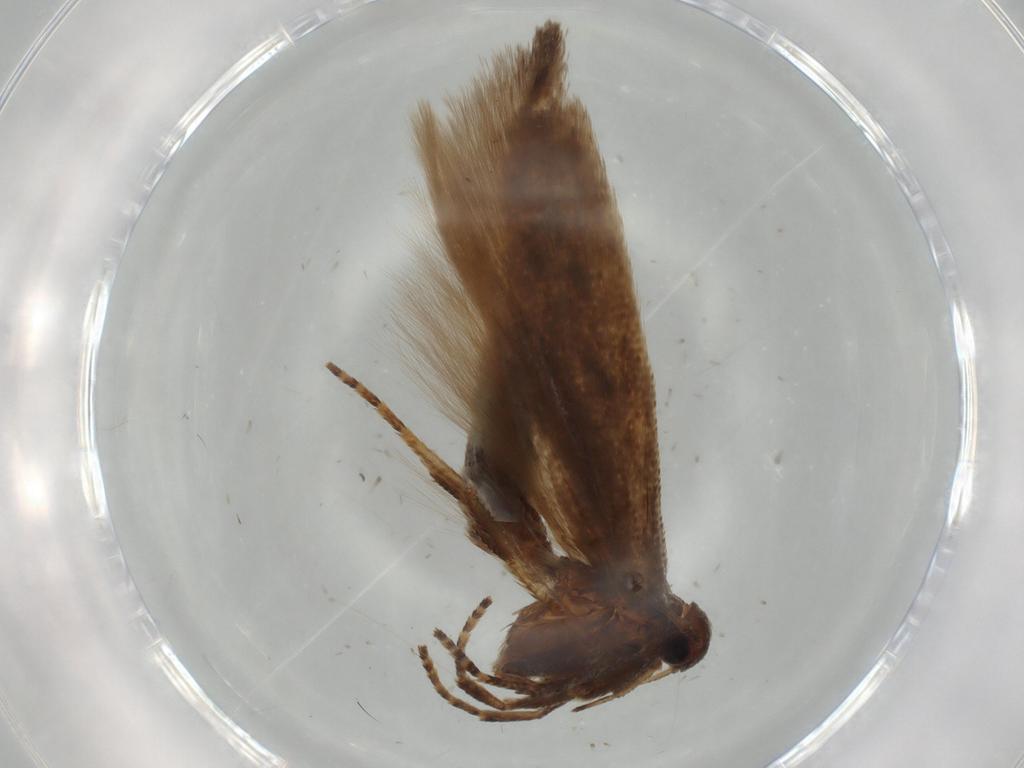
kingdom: Animalia
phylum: Arthropoda
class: Insecta
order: Lepidoptera
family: Gelechiidae
